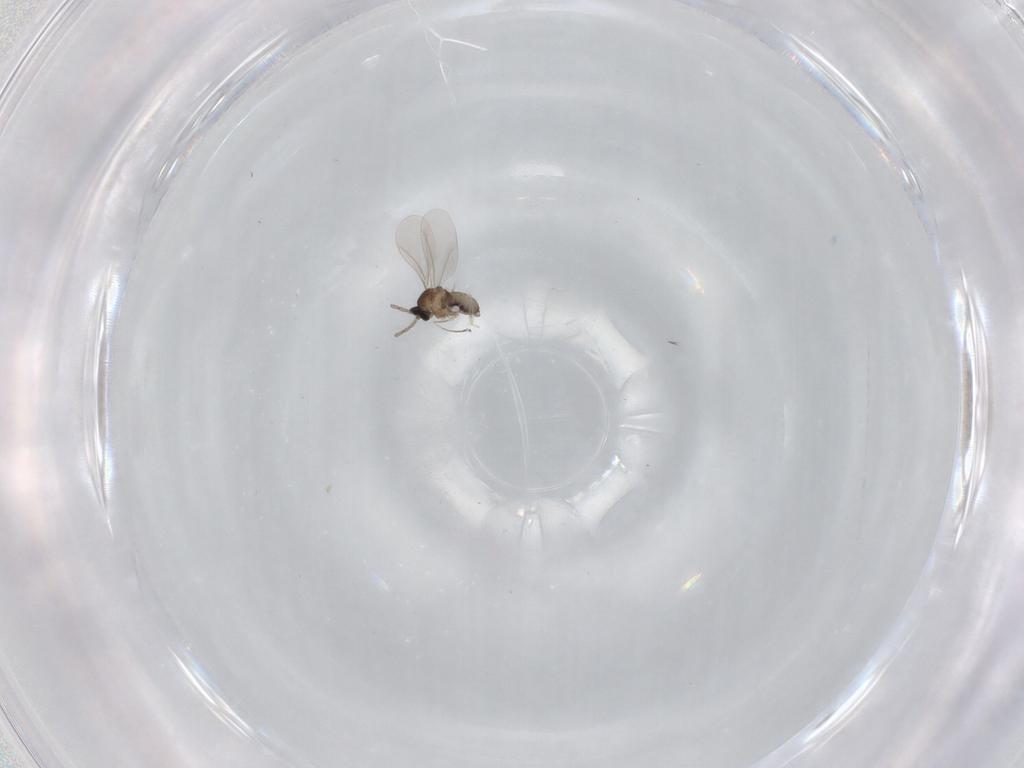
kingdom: Animalia
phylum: Arthropoda
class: Insecta
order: Diptera
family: Cecidomyiidae
